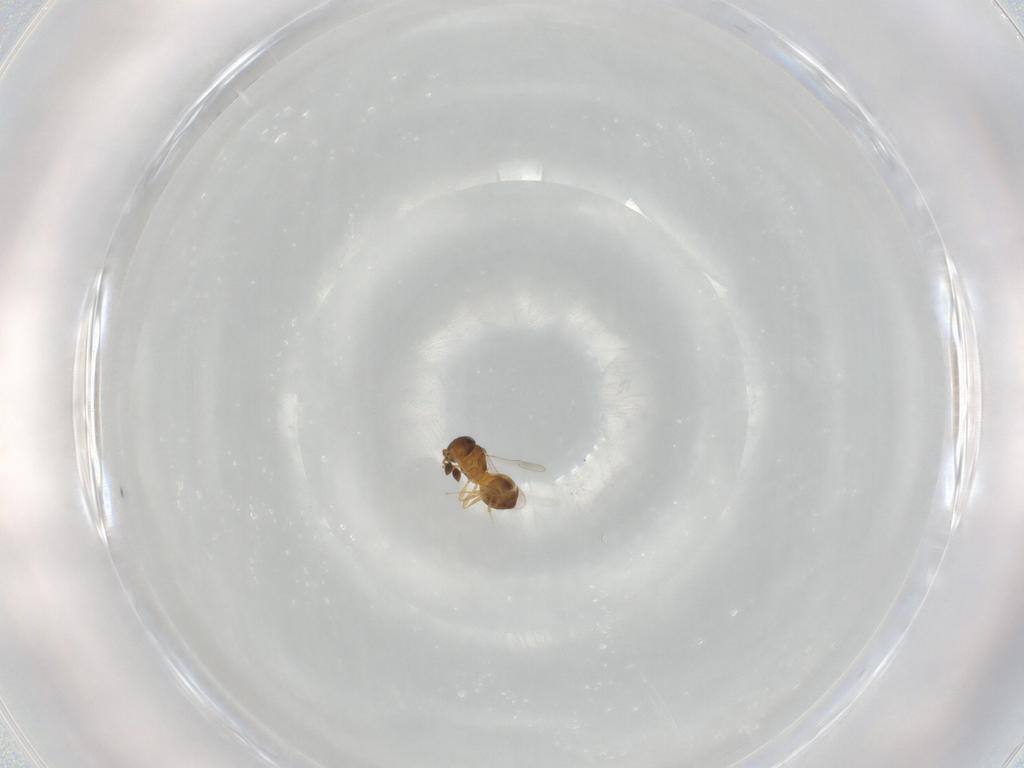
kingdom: Animalia
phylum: Arthropoda
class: Insecta
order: Hymenoptera
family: Scelionidae
